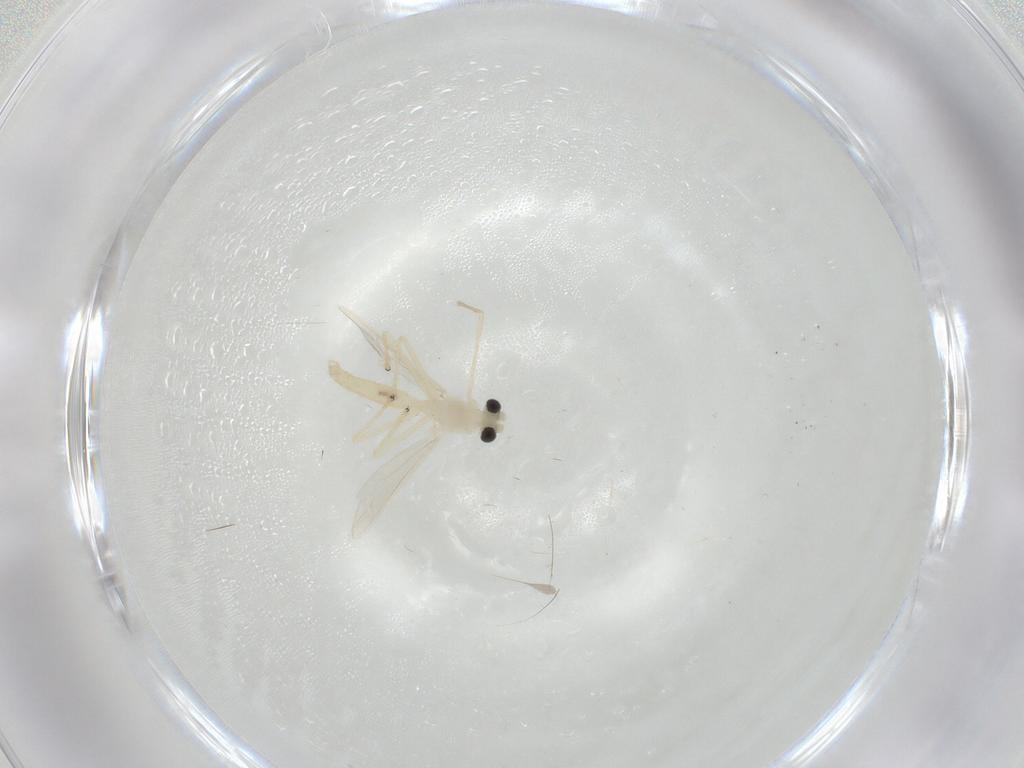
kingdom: Animalia
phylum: Arthropoda
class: Insecta
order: Diptera
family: Chironomidae
